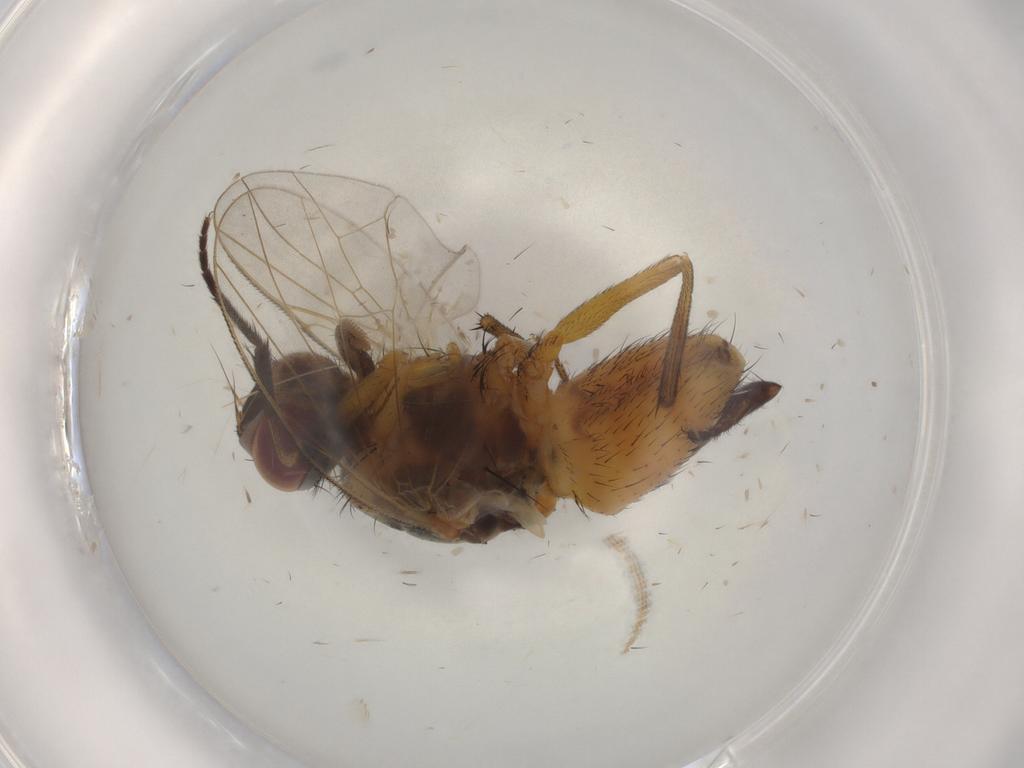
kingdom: Animalia
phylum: Arthropoda
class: Insecta
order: Diptera
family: Muscidae
